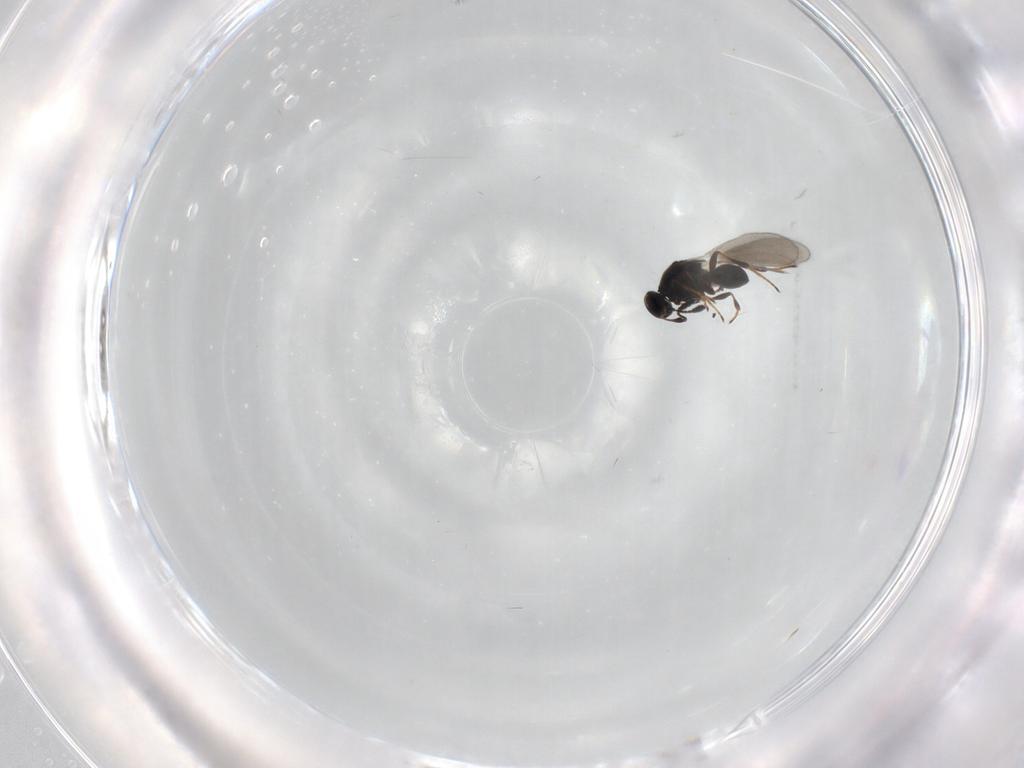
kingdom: Animalia
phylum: Arthropoda
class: Insecta
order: Hymenoptera
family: Platygastridae
